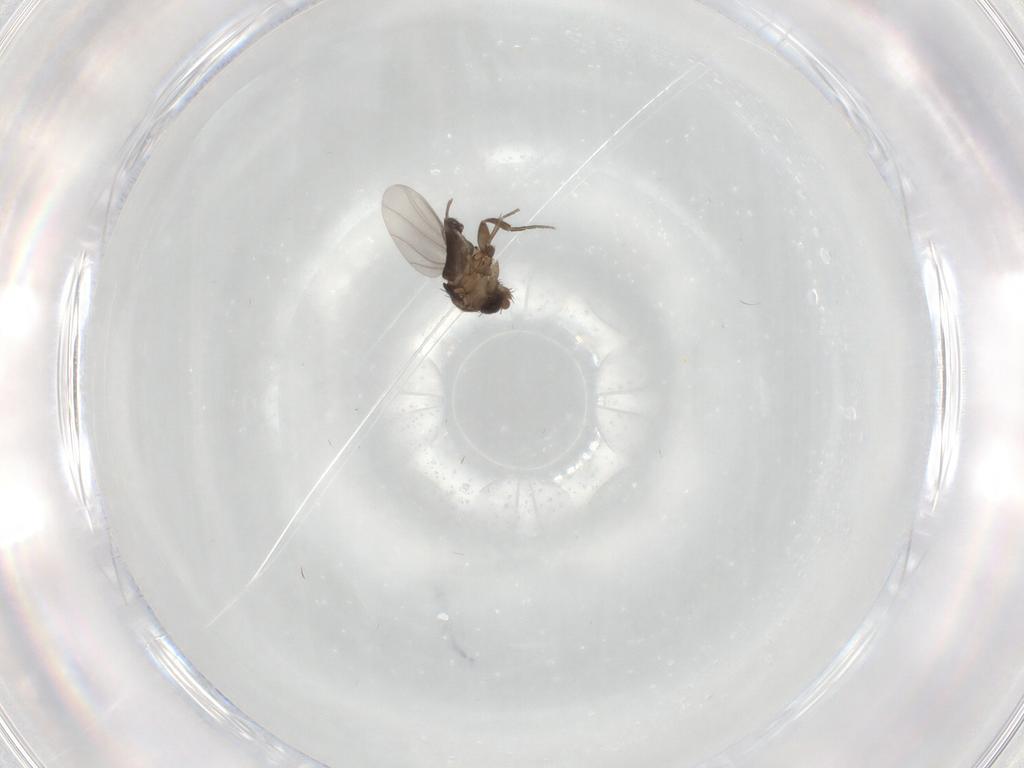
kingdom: Animalia
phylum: Arthropoda
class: Insecta
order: Diptera
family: Phoridae
